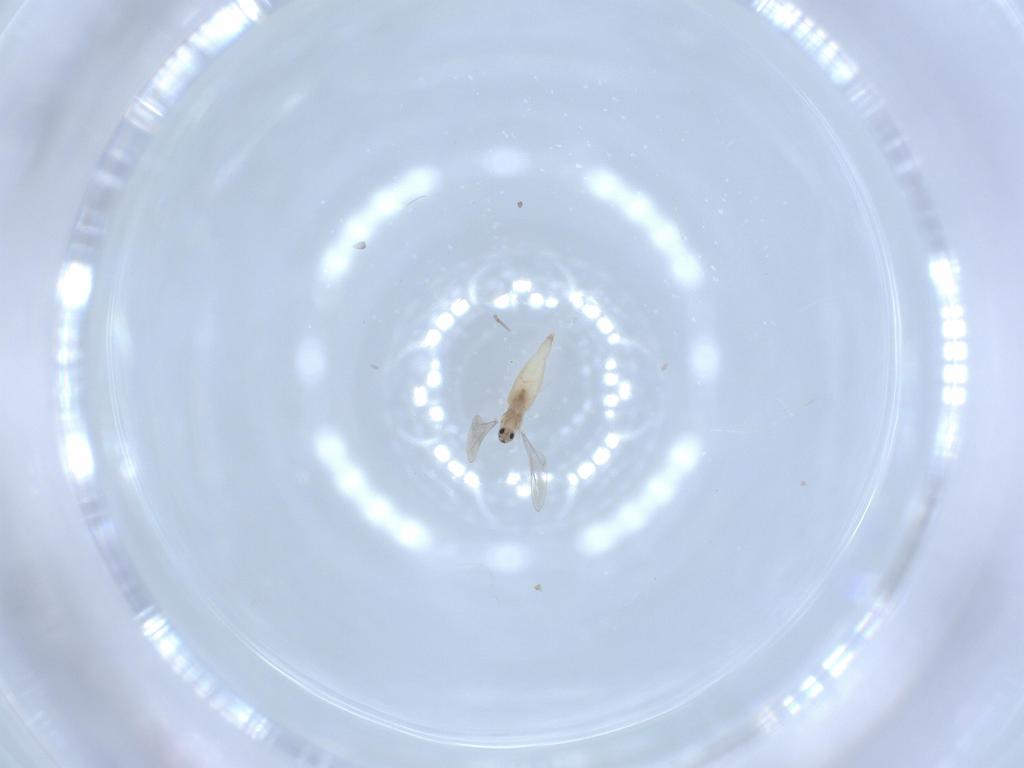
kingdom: Animalia
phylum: Arthropoda
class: Insecta
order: Diptera
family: Cecidomyiidae
